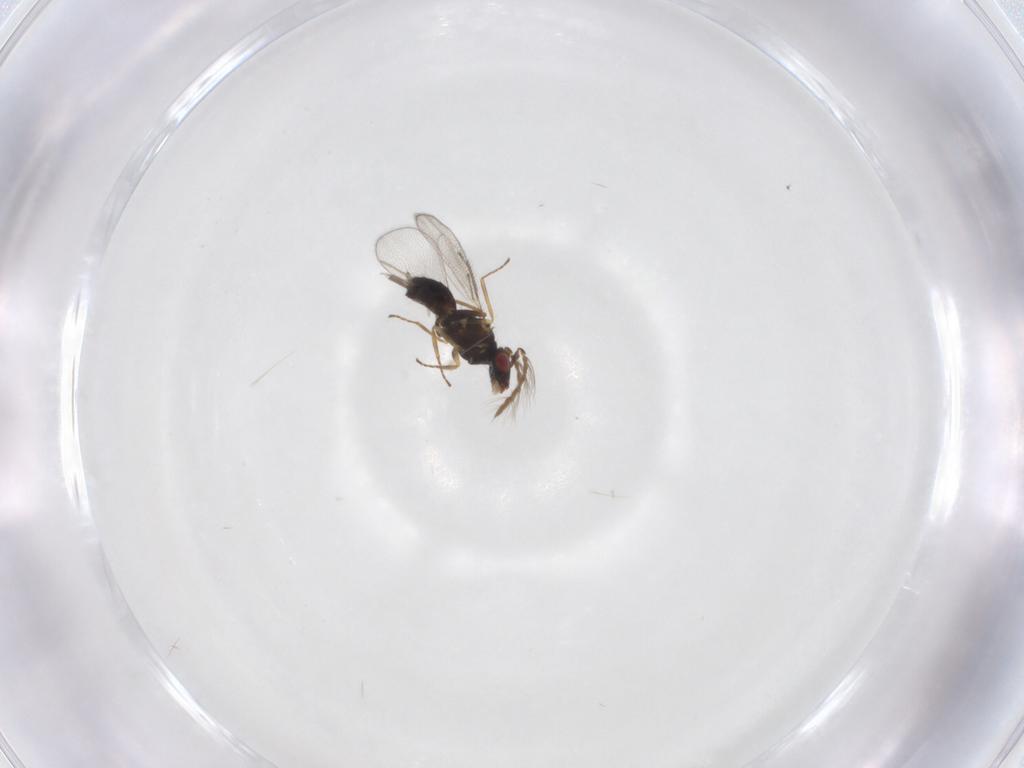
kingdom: Animalia
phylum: Arthropoda
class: Insecta
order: Hymenoptera
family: Eulophidae
